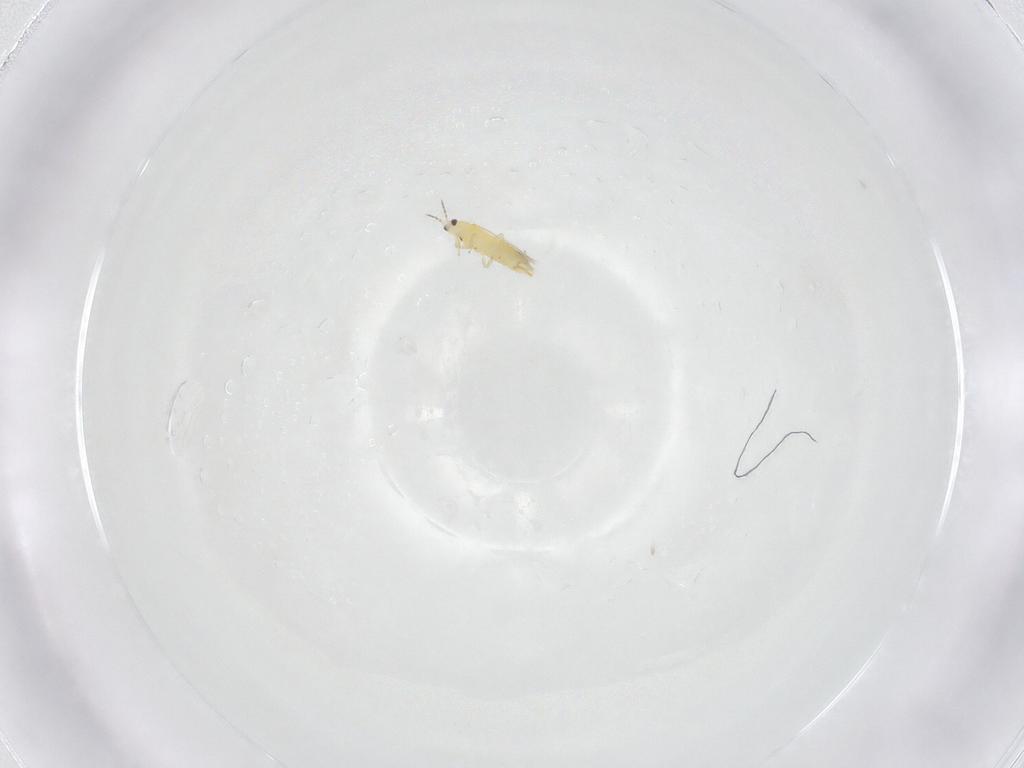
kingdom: Animalia
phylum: Arthropoda
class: Insecta
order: Thysanoptera
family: Thripidae
